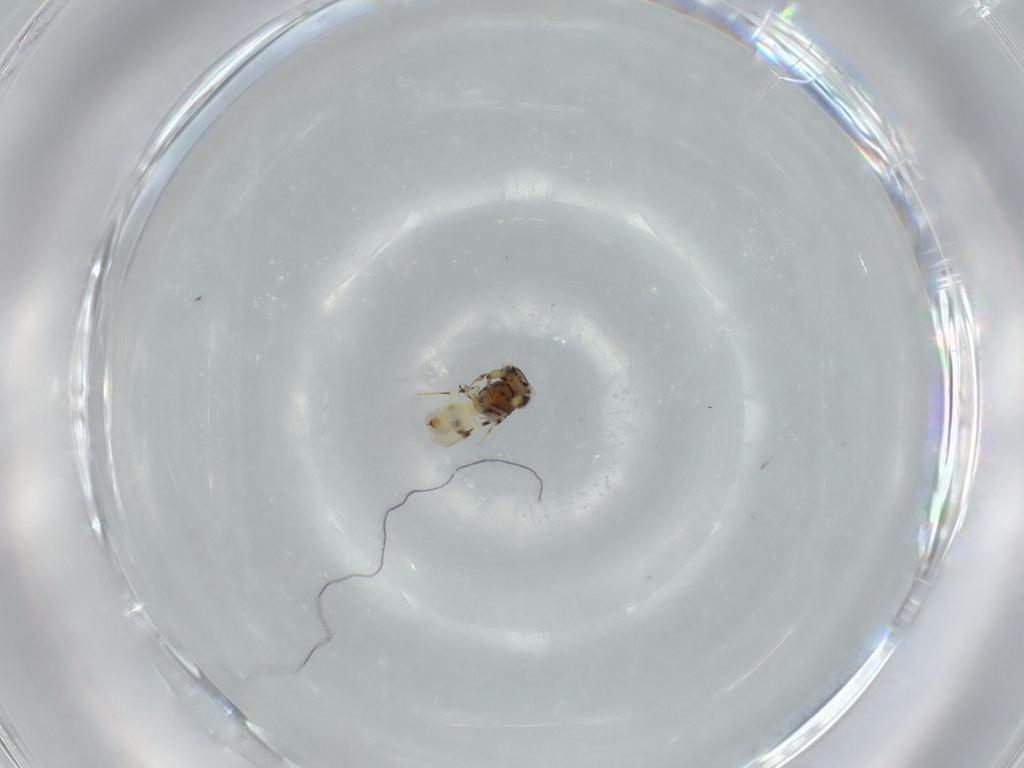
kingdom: Animalia
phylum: Arthropoda
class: Insecta
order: Hymenoptera
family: Scelionidae
